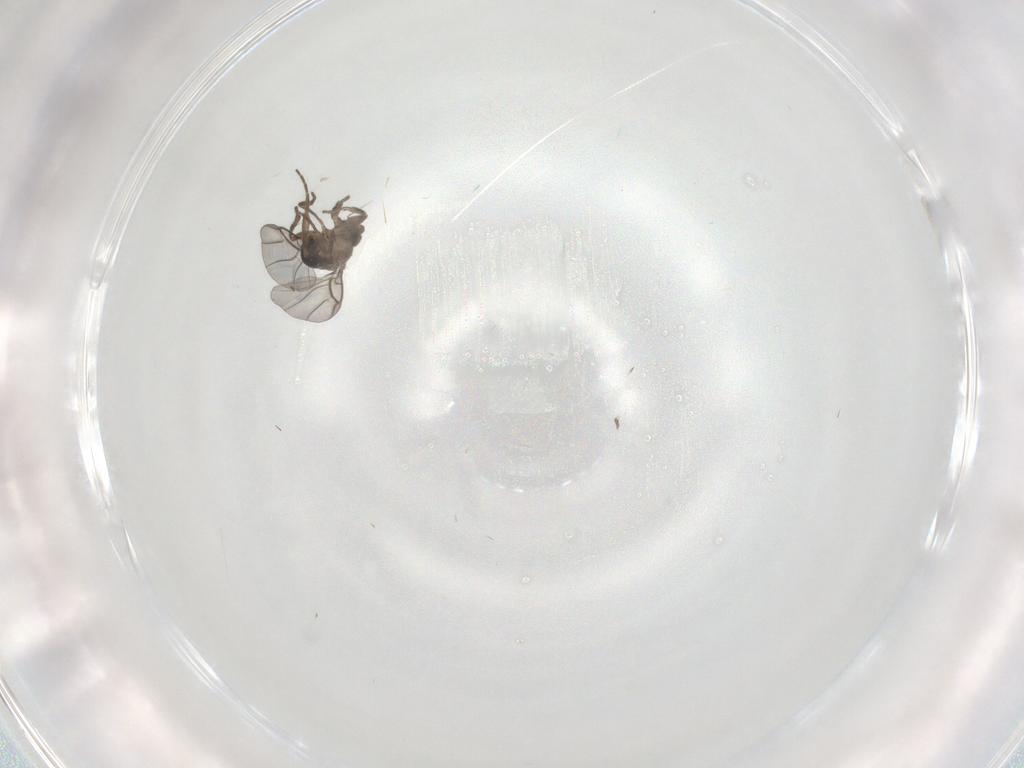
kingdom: Animalia
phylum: Arthropoda
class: Insecta
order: Diptera
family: Phoridae
